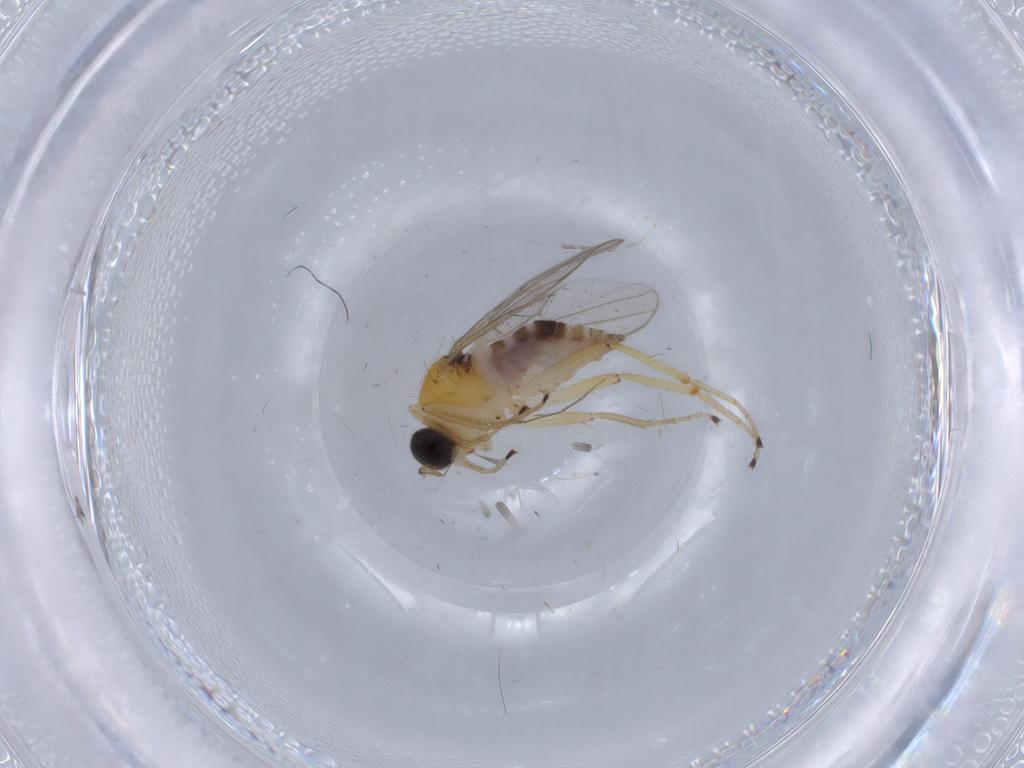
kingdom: Animalia
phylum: Arthropoda
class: Insecta
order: Diptera
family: Hybotidae
